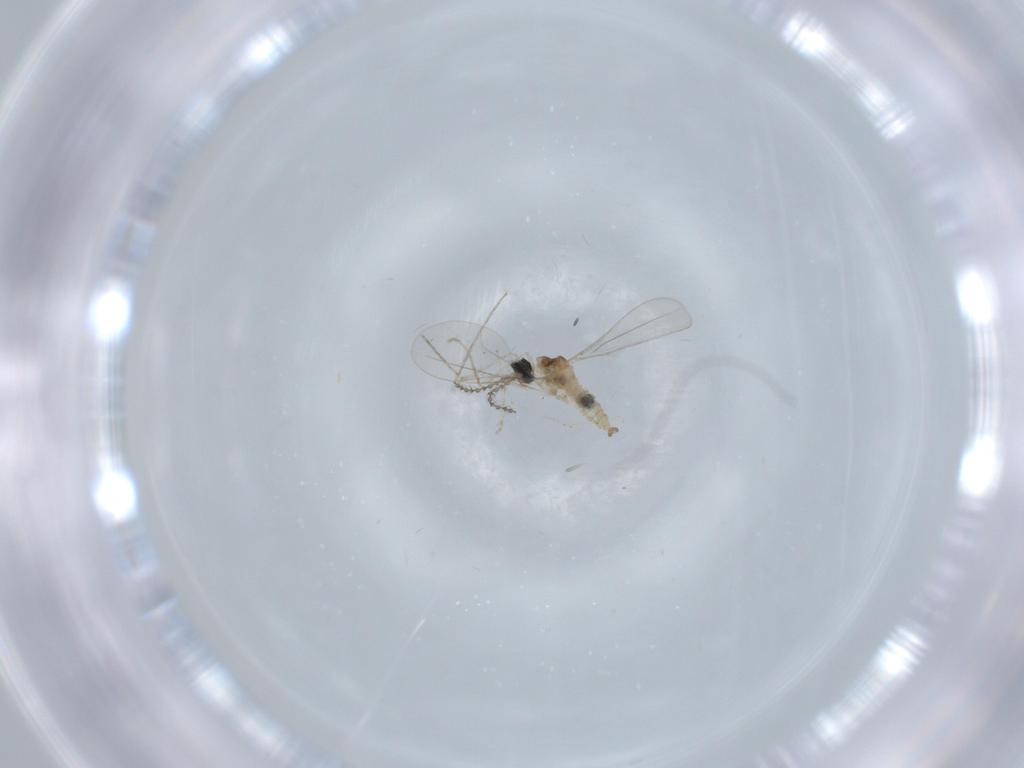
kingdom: Animalia
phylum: Arthropoda
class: Insecta
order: Diptera
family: Cecidomyiidae
